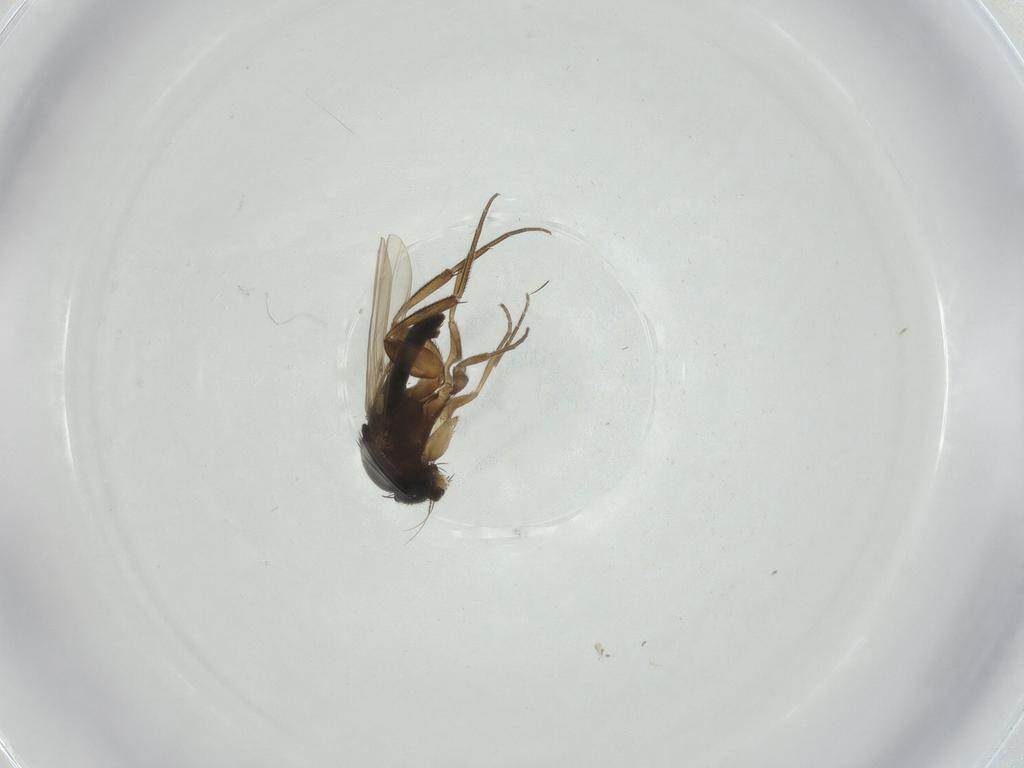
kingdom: Animalia
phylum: Arthropoda
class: Insecta
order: Diptera
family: Phoridae
